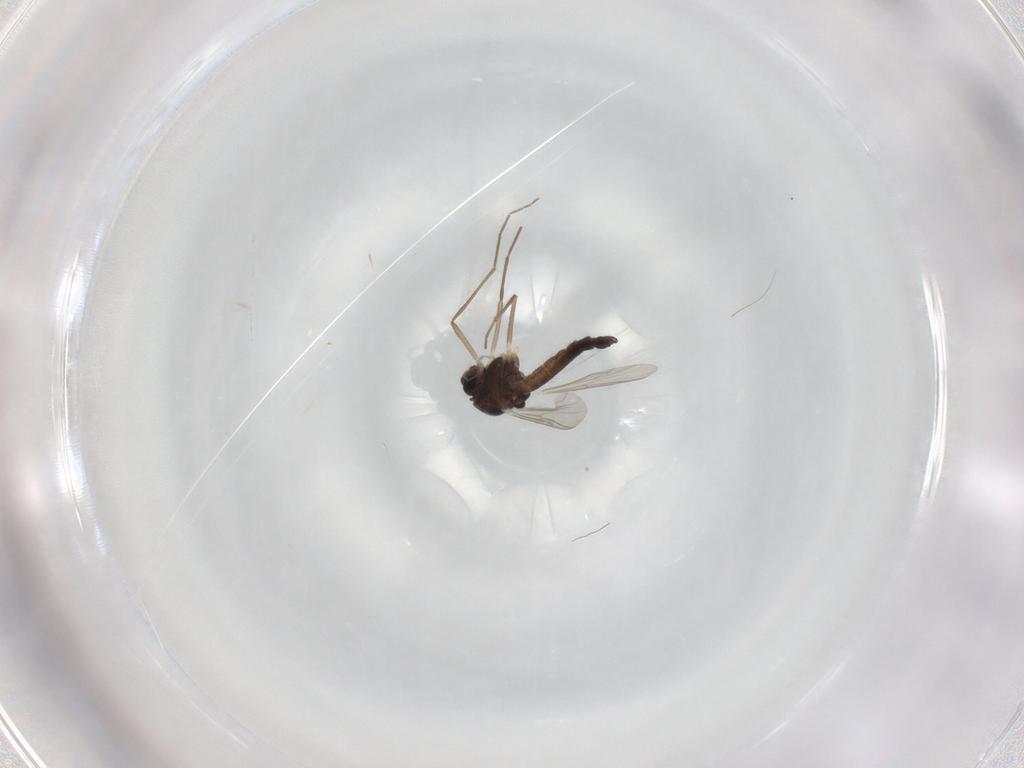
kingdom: Animalia
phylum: Arthropoda
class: Insecta
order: Diptera
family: Chironomidae
